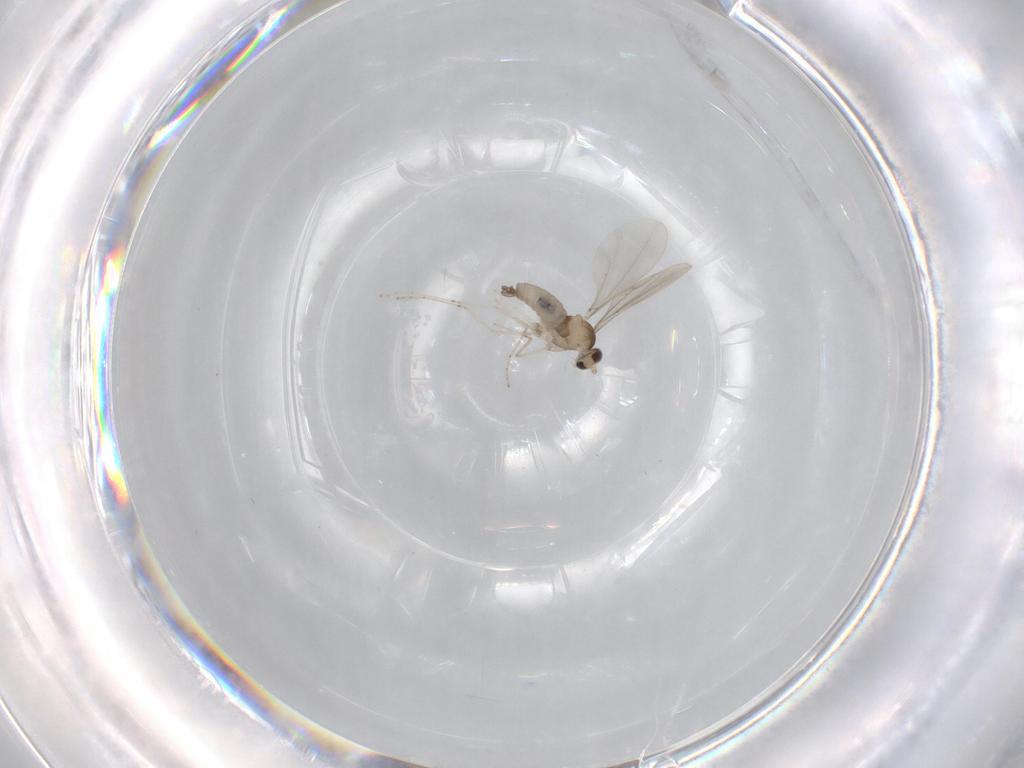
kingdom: Animalia
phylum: Arthropoda
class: Insecta
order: Diptera
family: Cecidomyiidae
